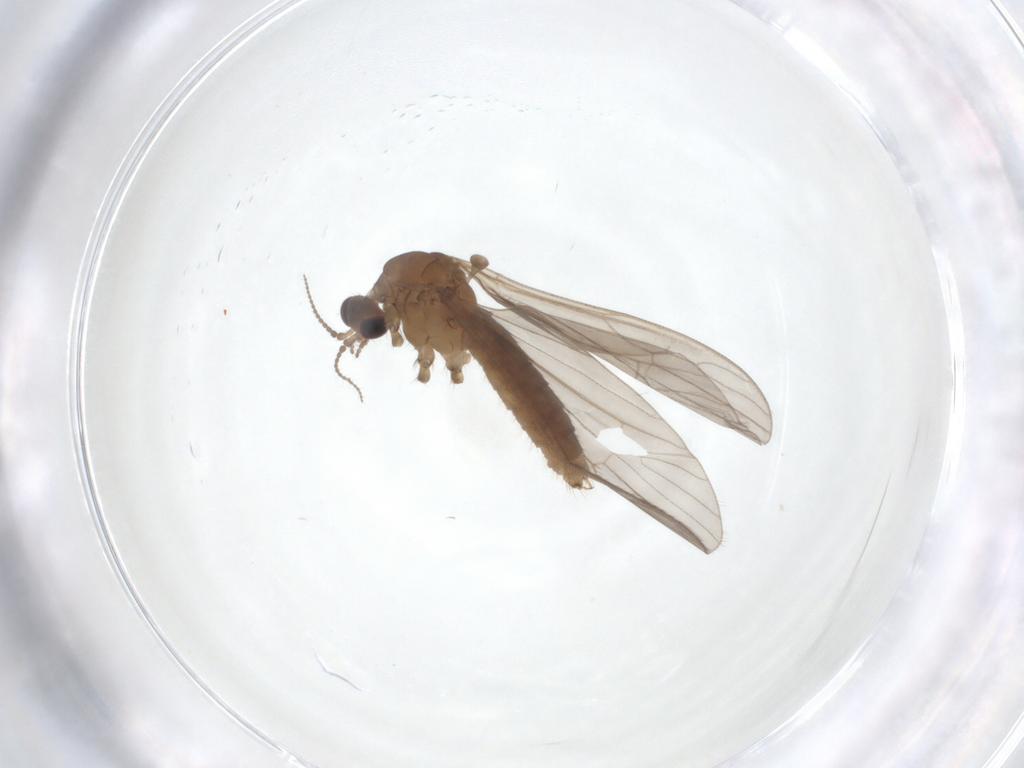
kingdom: Animalia
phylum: Arthropoda
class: Insecta
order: Diptera
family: Limoniidae
